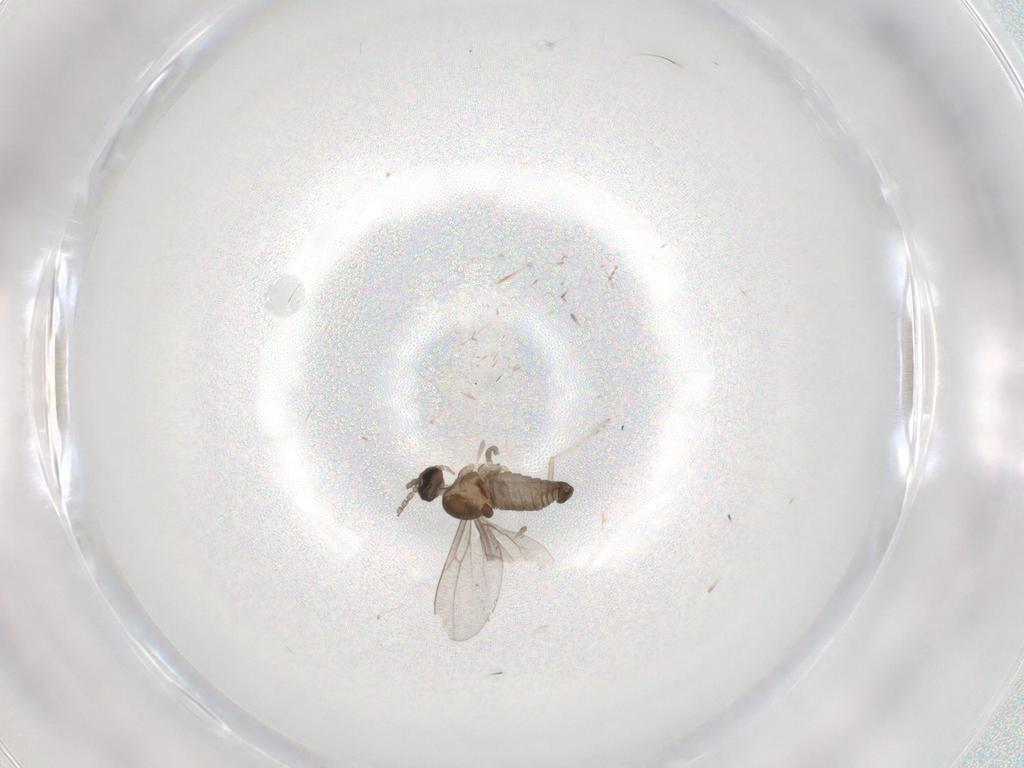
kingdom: Animalia
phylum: Arthropoda
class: Insecta
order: Diptera
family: Cecidomyiidae
